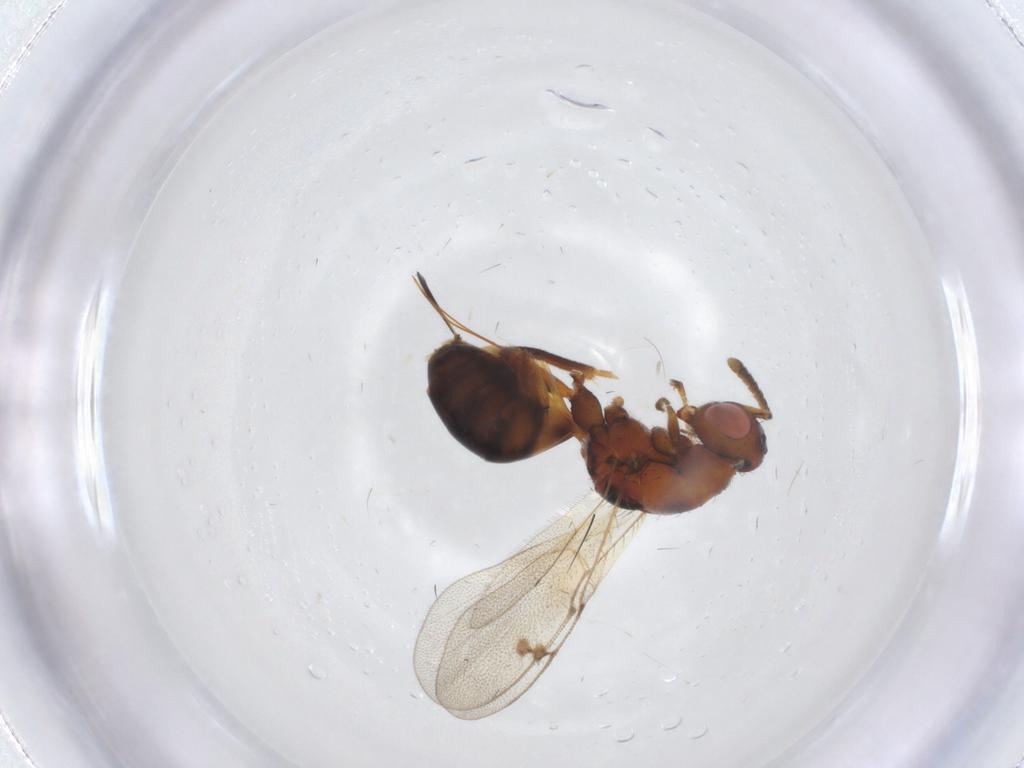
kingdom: Animalia
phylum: Arthropoda
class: Insecta
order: Hymenoptera
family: Megastigmidae
